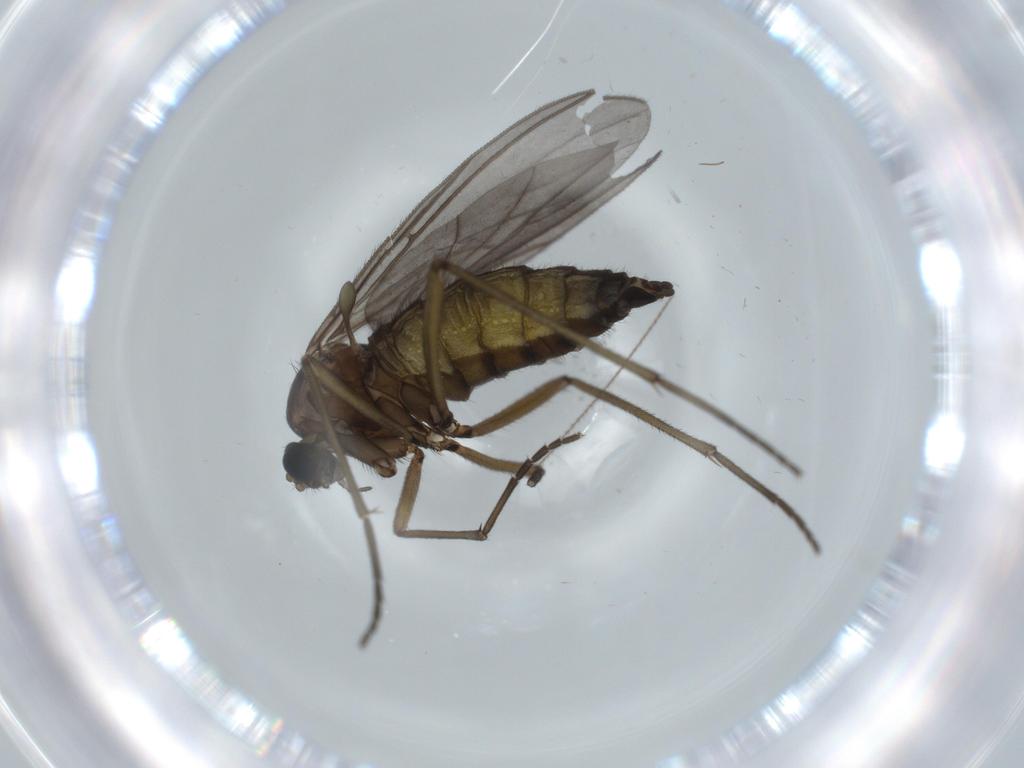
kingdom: Animalia
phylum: Arthropoda
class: Insecta
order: Diptera
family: Sciaridae
